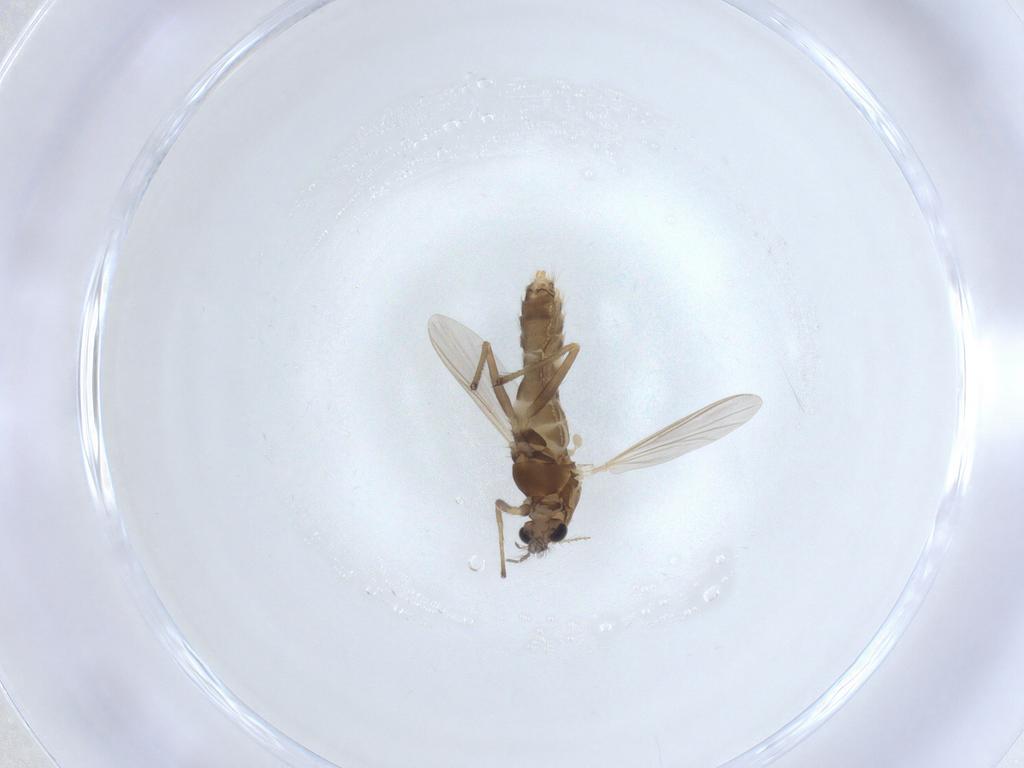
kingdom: Animalia
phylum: Arthropoda
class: Insecta
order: Diptera
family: Chironomidae
